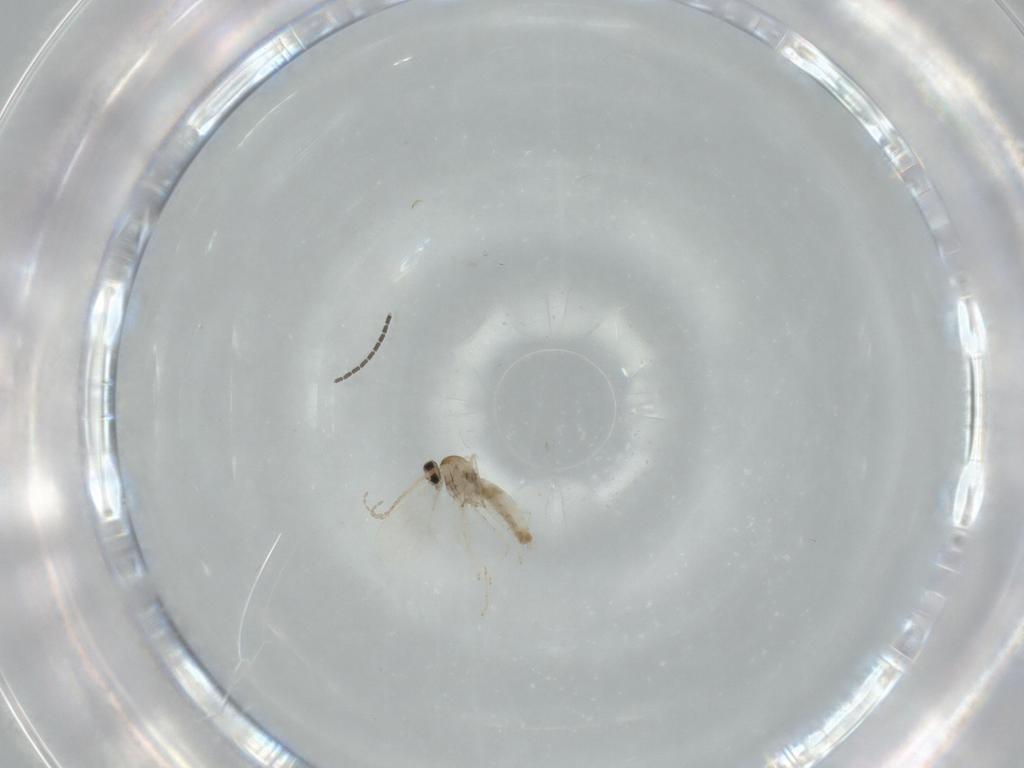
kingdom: Animalia
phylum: Arthropoda
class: Insecta
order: Diptera
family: Cecidomyiidae
